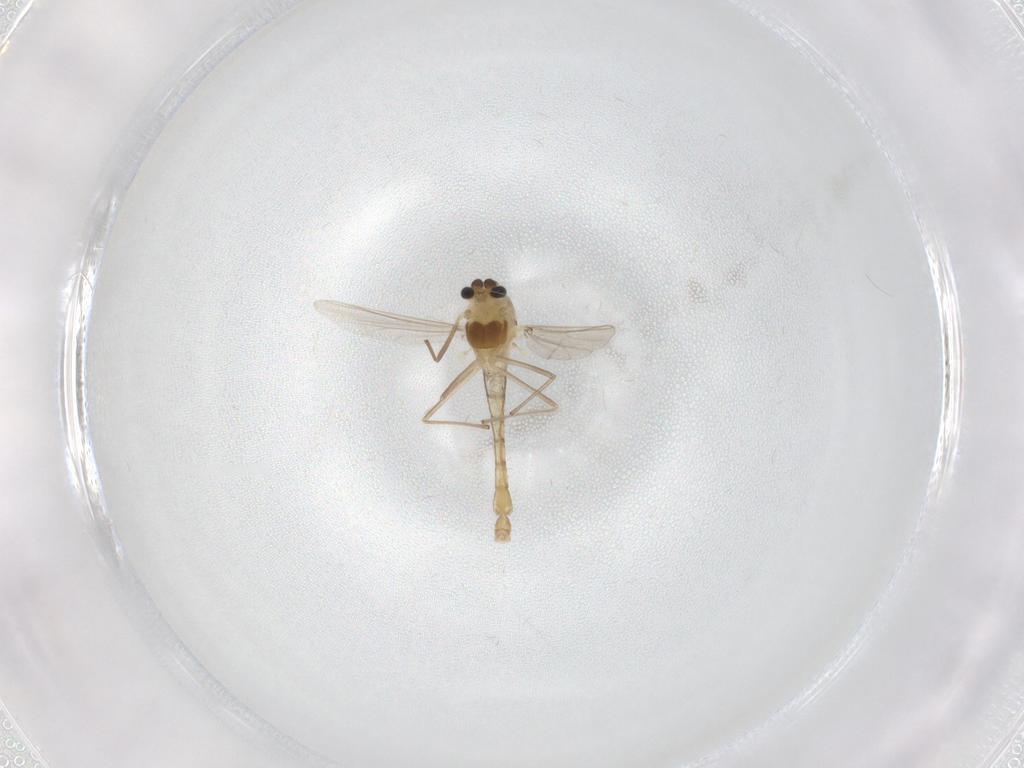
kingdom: Animalia
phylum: Arthropoda
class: Insecta
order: Diptera
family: Chironomidae
